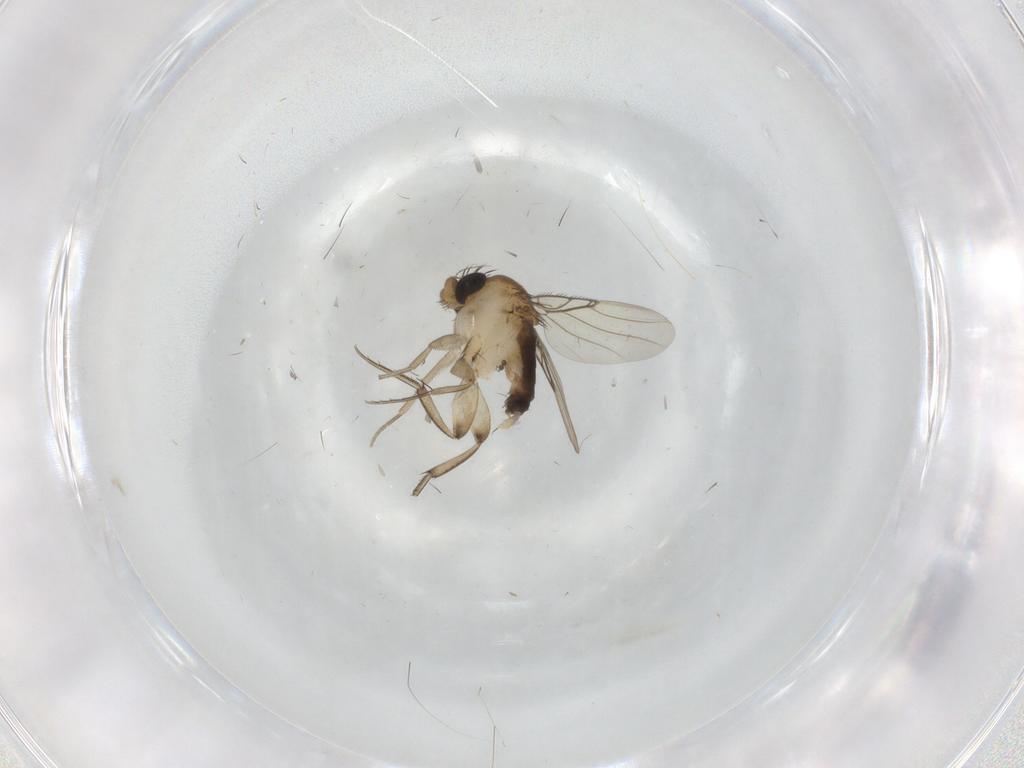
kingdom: Animalia
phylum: Arthropoda
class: Insecta
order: Diptera
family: Phoridae
